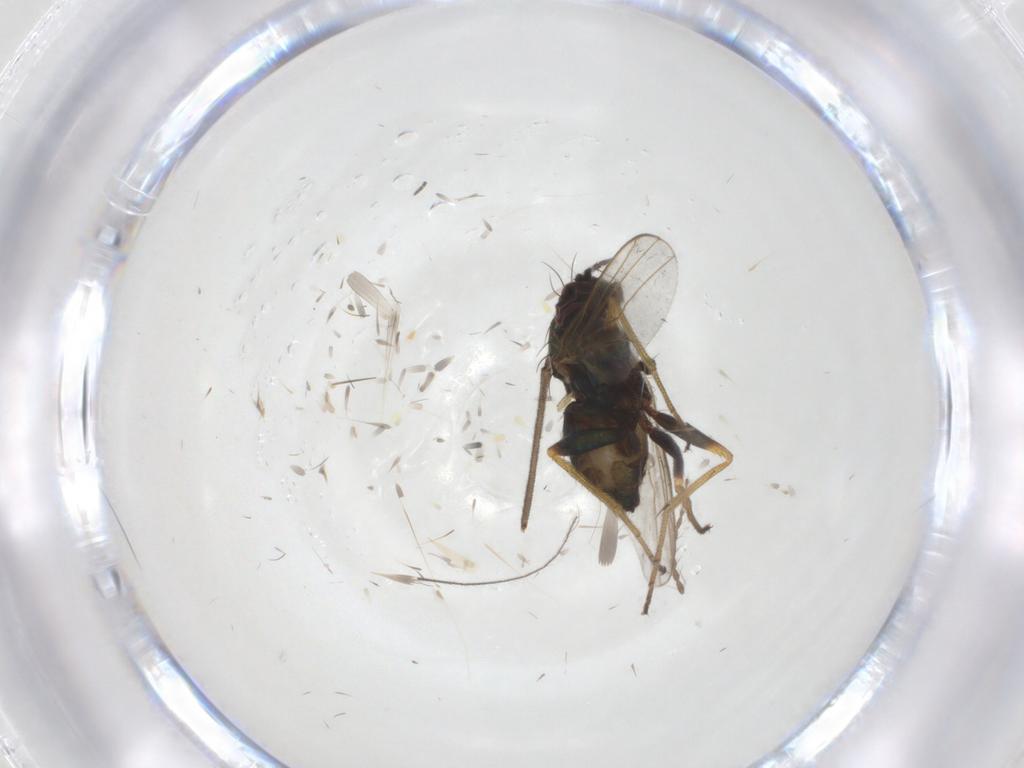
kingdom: Animalia
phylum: Arthropoda
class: Insecta
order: Diptera
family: Dolichopodidae
